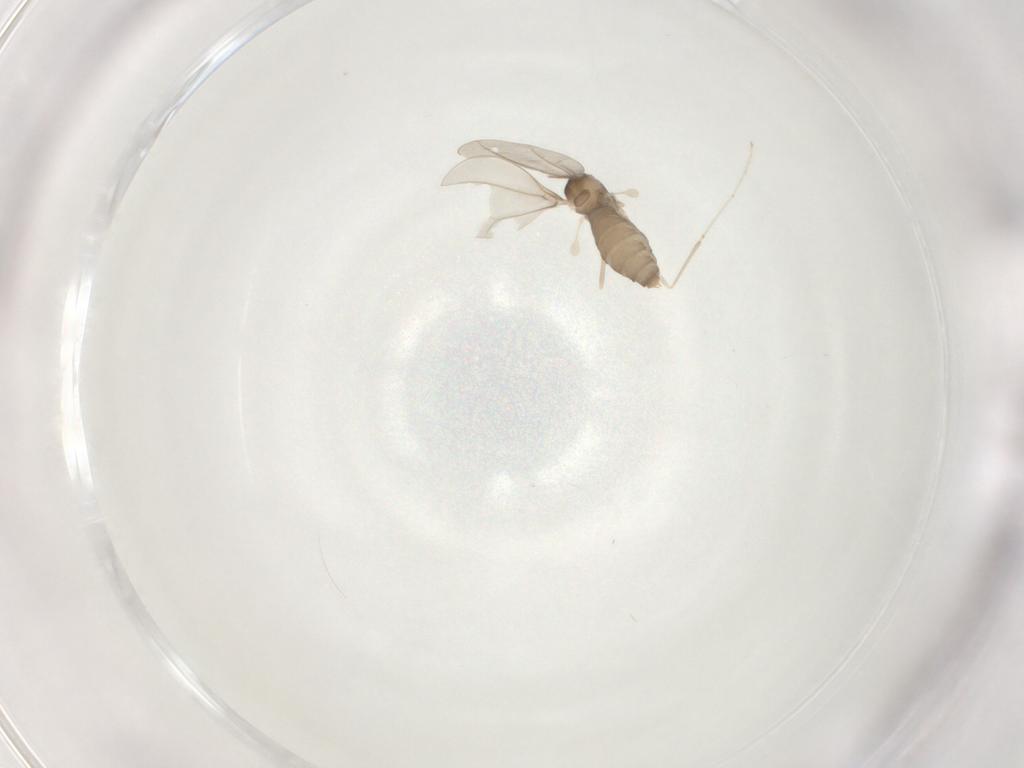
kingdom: Animalia
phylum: Arthropoda
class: Insecta
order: Diptera
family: Cecidomyiidae
